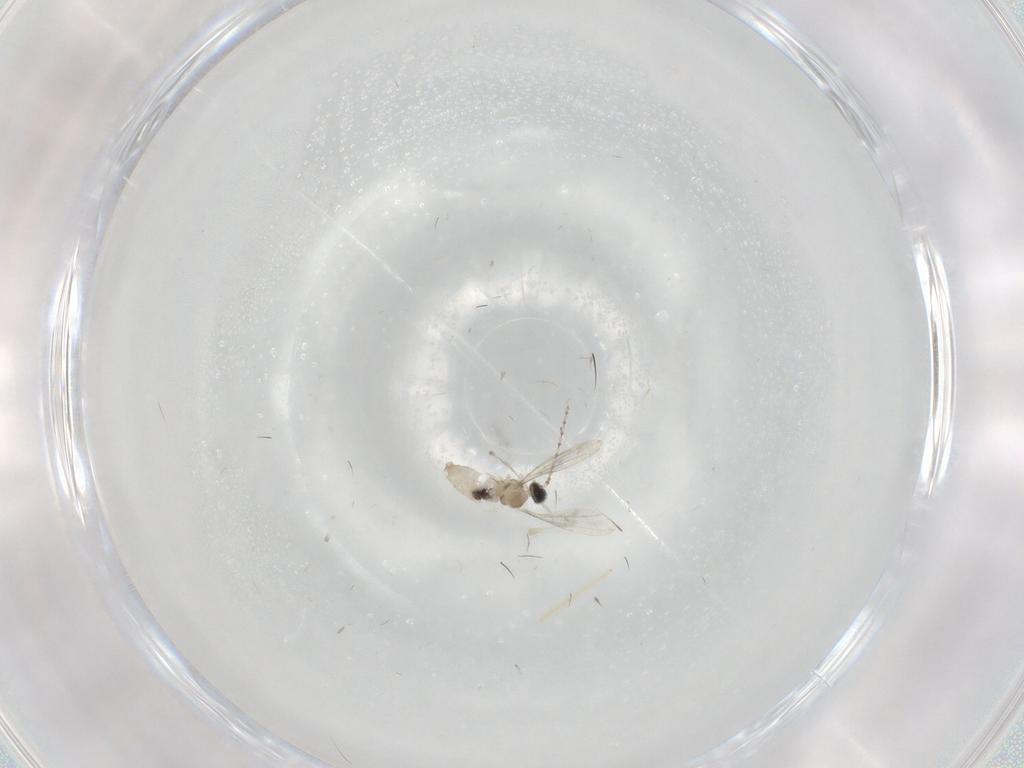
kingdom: Animalia
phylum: Arthropoda
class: Insecta
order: Diptera
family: Cecidomyiidae
